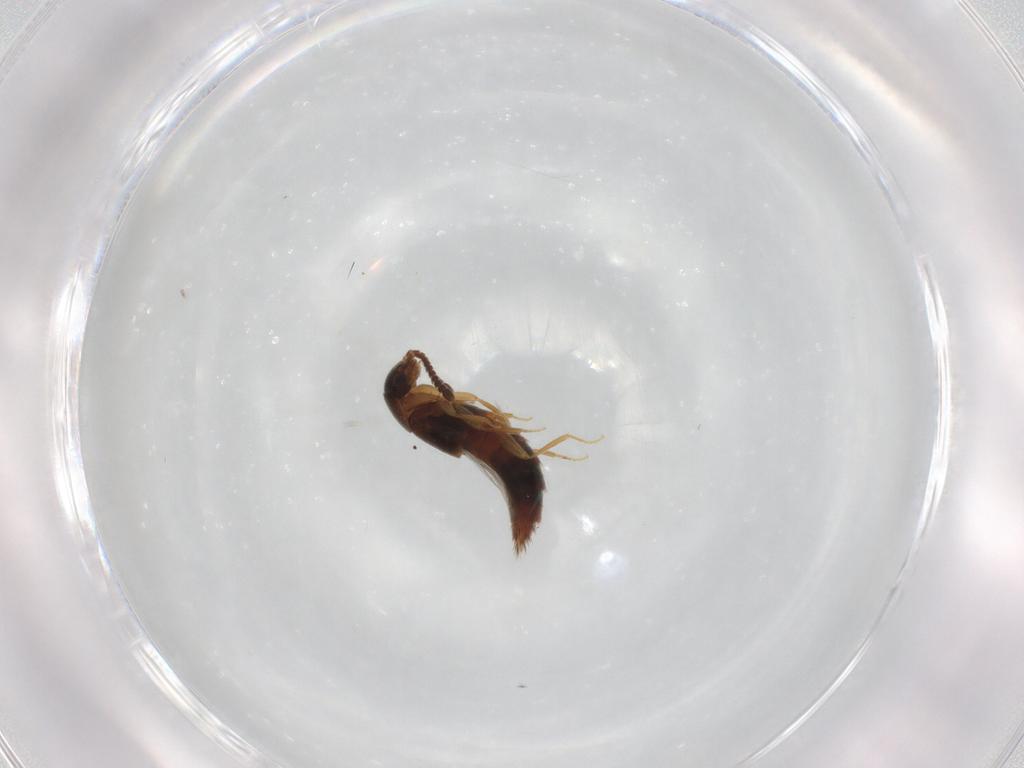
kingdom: Animalia
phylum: Arthropoda
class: Insecta
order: Coleoptera
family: Staphylinidae
